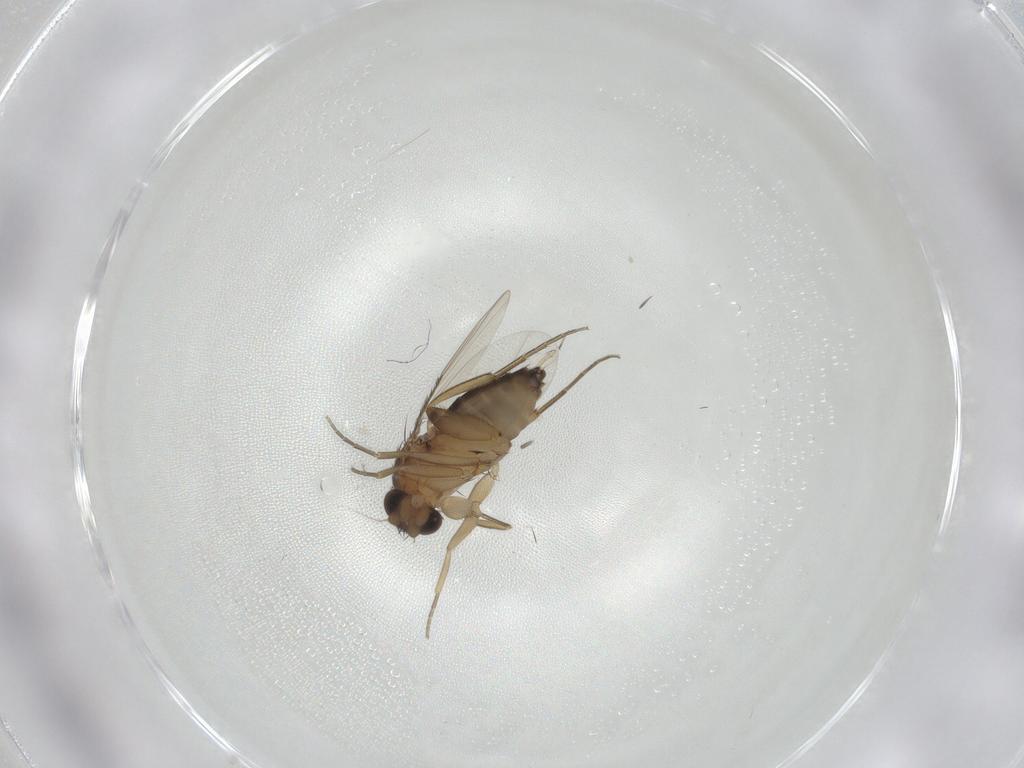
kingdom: Animalia
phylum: Arthropoda
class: Insecta
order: Diptera
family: Phoridae
